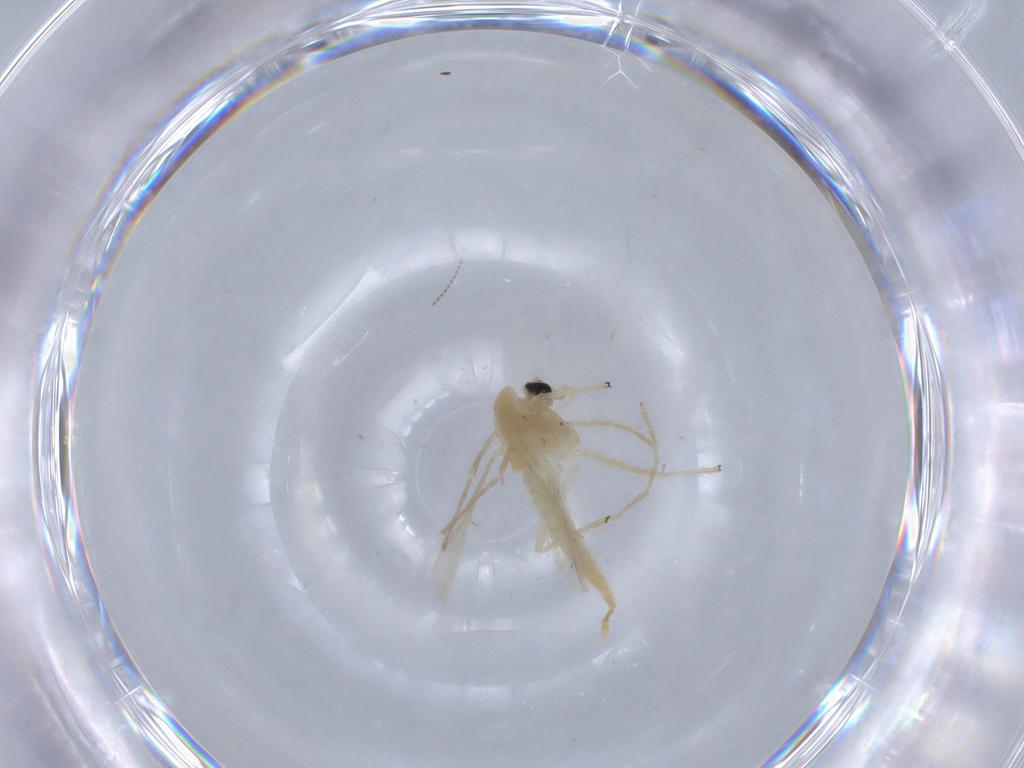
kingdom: Animalia
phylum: Arthropoda
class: Insecta
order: Diptera
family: Chironomidae
